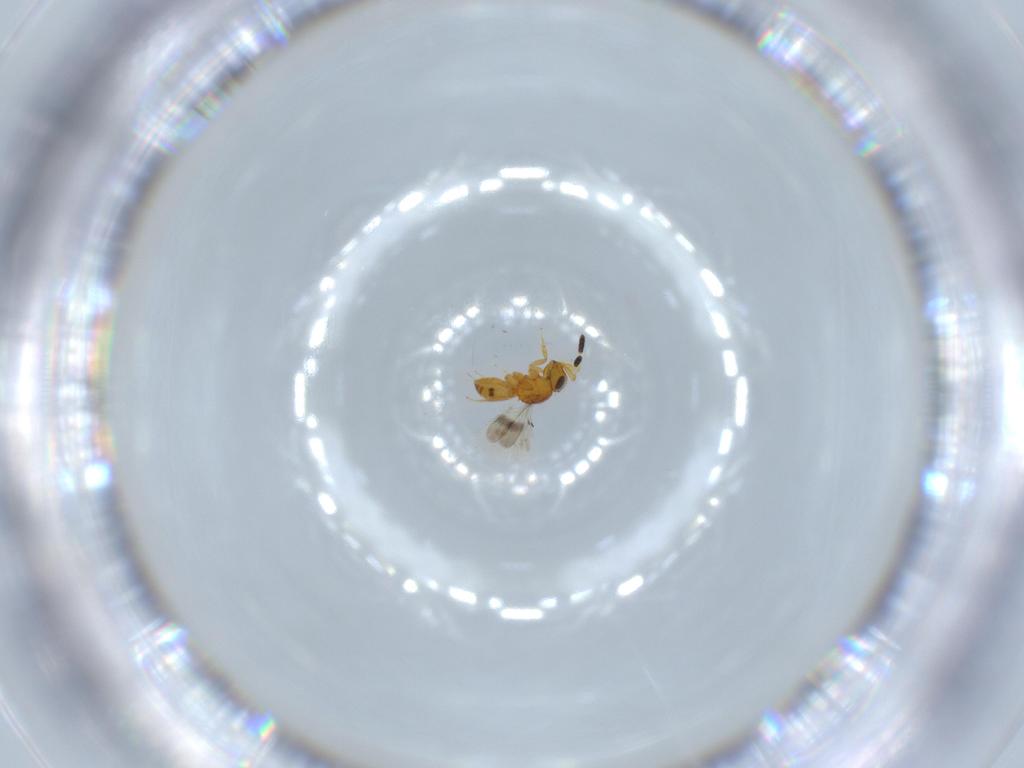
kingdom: Animalia
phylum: Arthropoda
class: Insecta
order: Hymenoptera
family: Scelionidae
